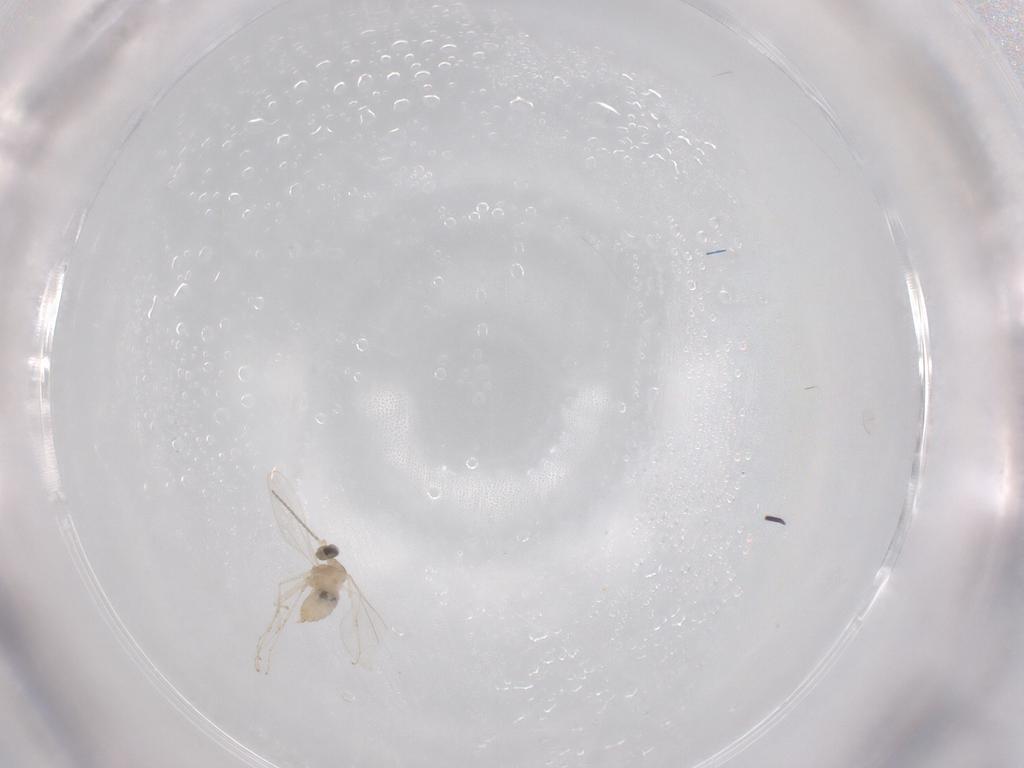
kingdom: Animalia
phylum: Arthropoda
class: Insecta
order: Diptera
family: Cecidomyiidae
